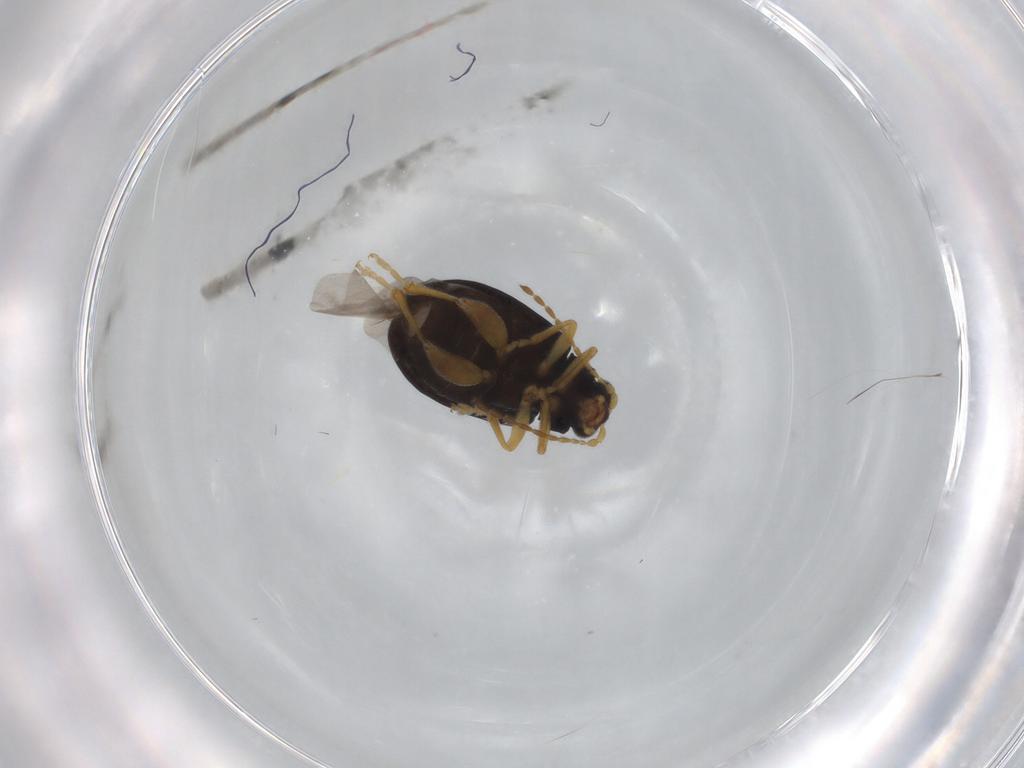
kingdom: Animalia
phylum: Arthropoda
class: Insecta
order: Coleoptera
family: Chrysomelidae
